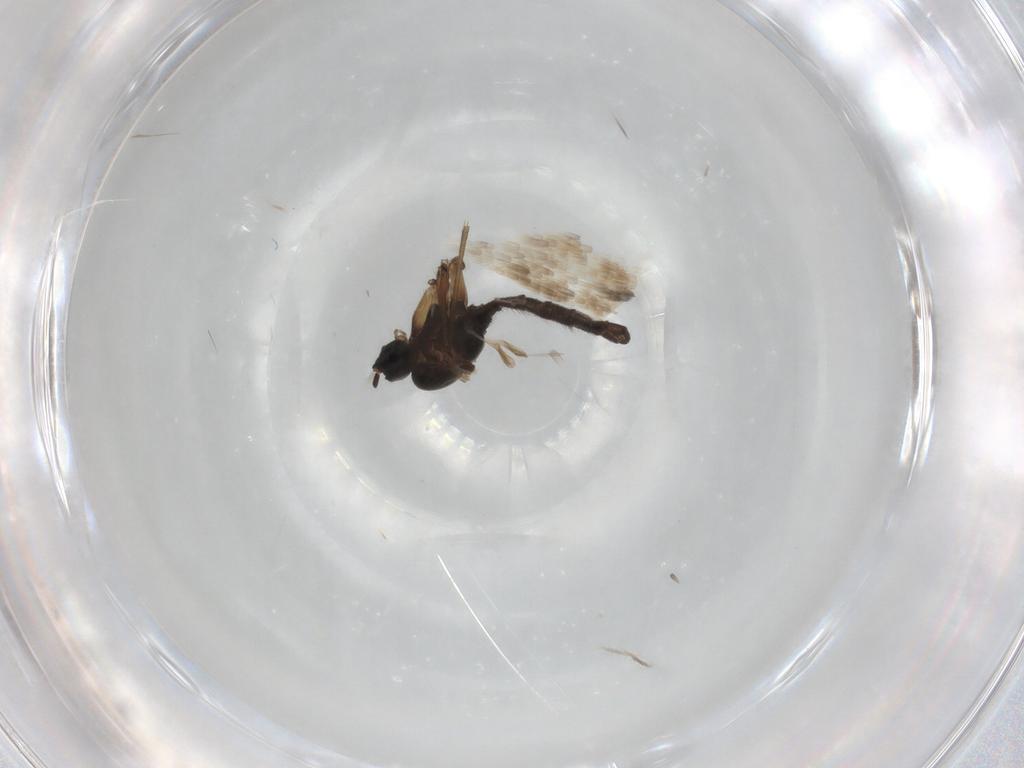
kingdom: Animalia
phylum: Arthropoda
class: Insecta
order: Diptera
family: Sciaridae
